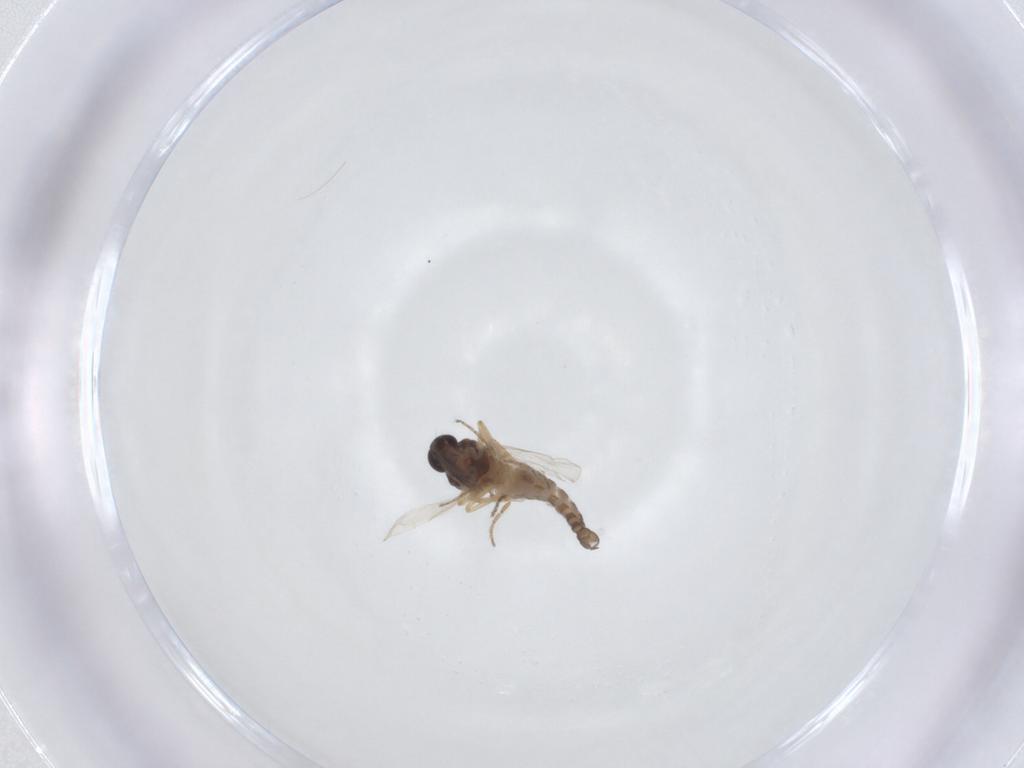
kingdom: Animalia
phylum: Arthropoda
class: Insecta
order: Diptera
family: Ceratopogonidae
